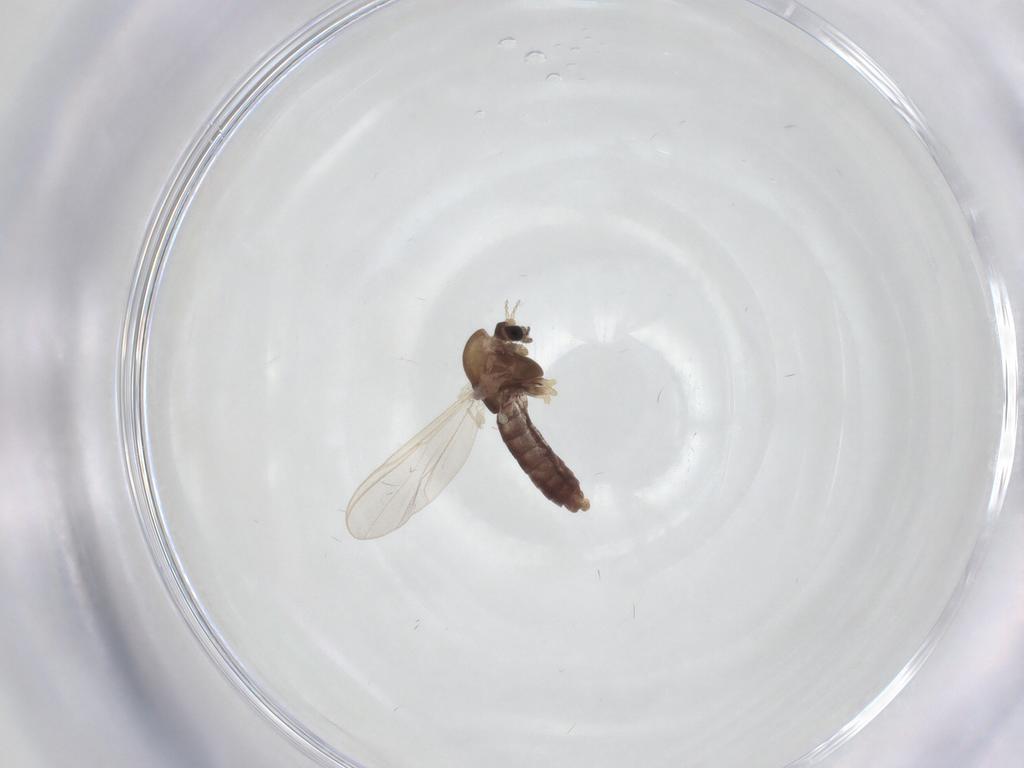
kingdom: Animalia
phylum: Arthropoda
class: Insecta
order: Diptera
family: Chironomidae
